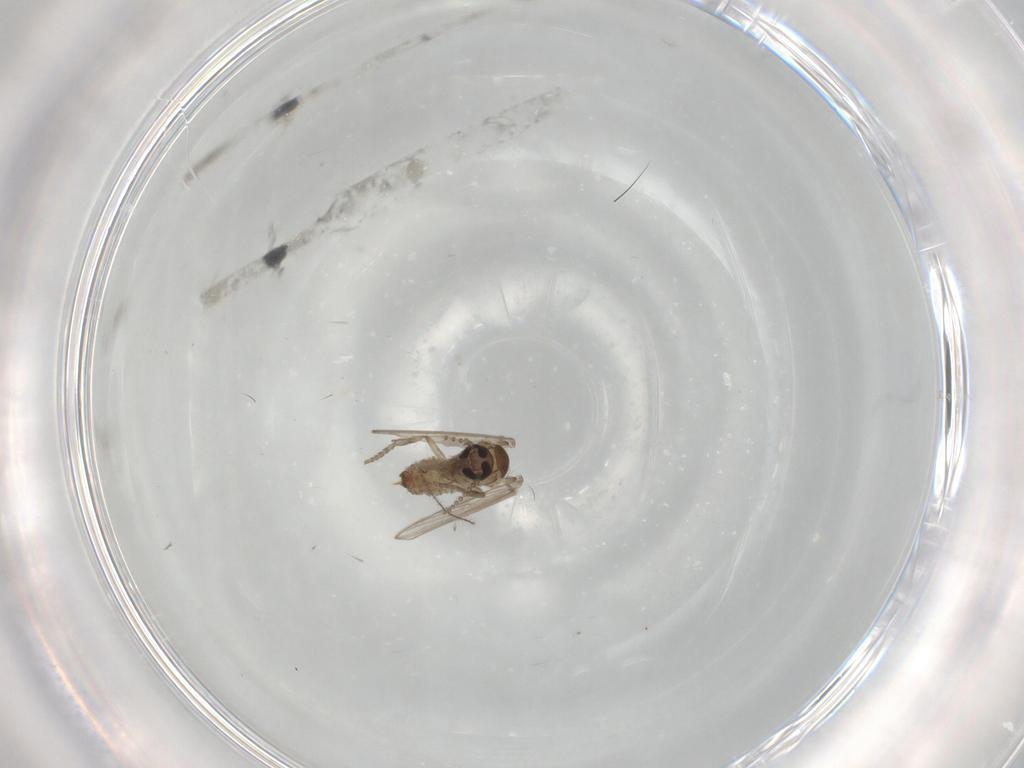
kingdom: Animalia
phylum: Arthropoda
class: Insecta
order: Diptera
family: Psychodidae
